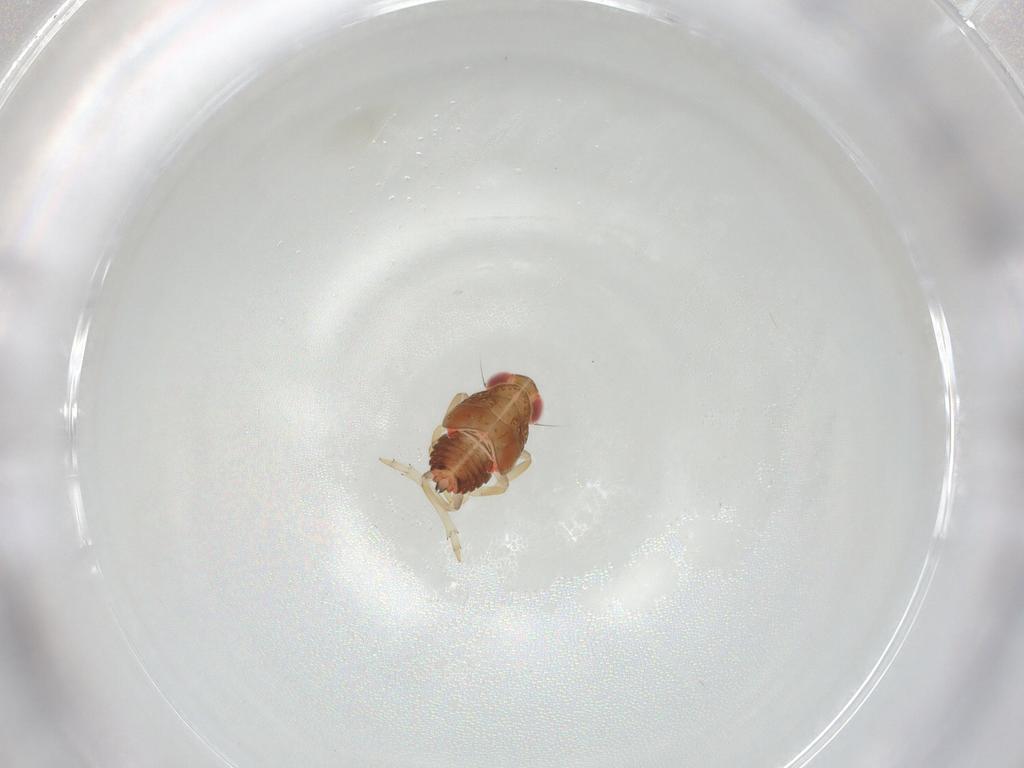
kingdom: Animalia
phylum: Arthropoda
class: Insecta
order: Hemiptera
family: Issidae
